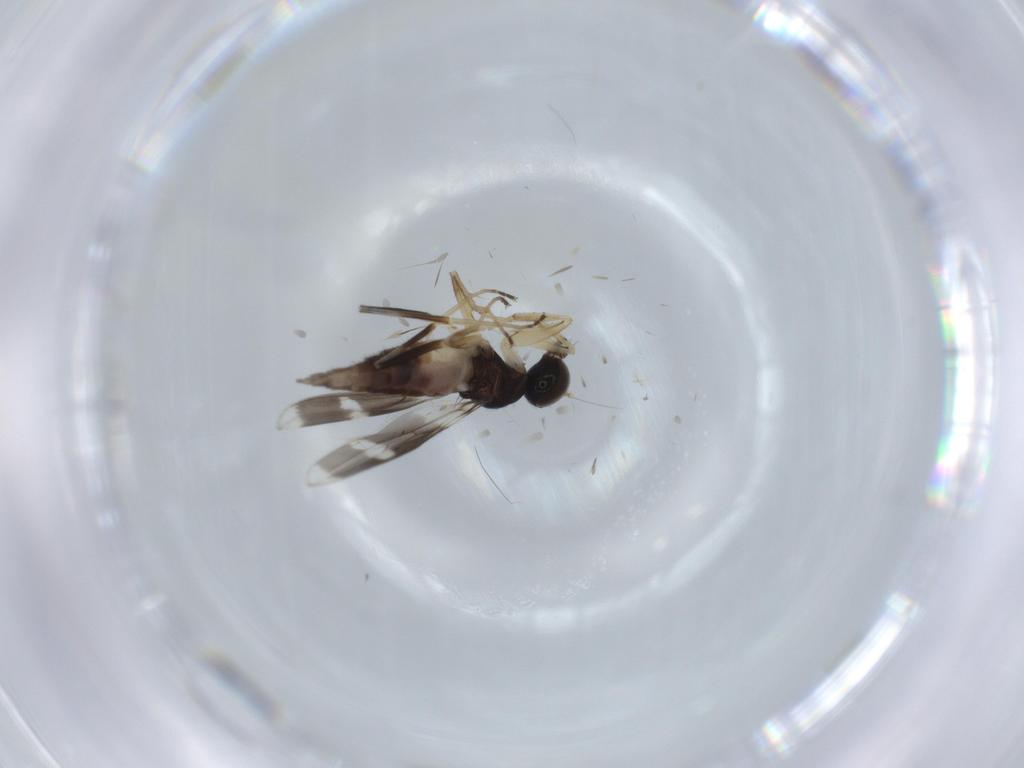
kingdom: Animalia
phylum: Arthropoda
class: Insecta
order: Diptera
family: Hybotidae
